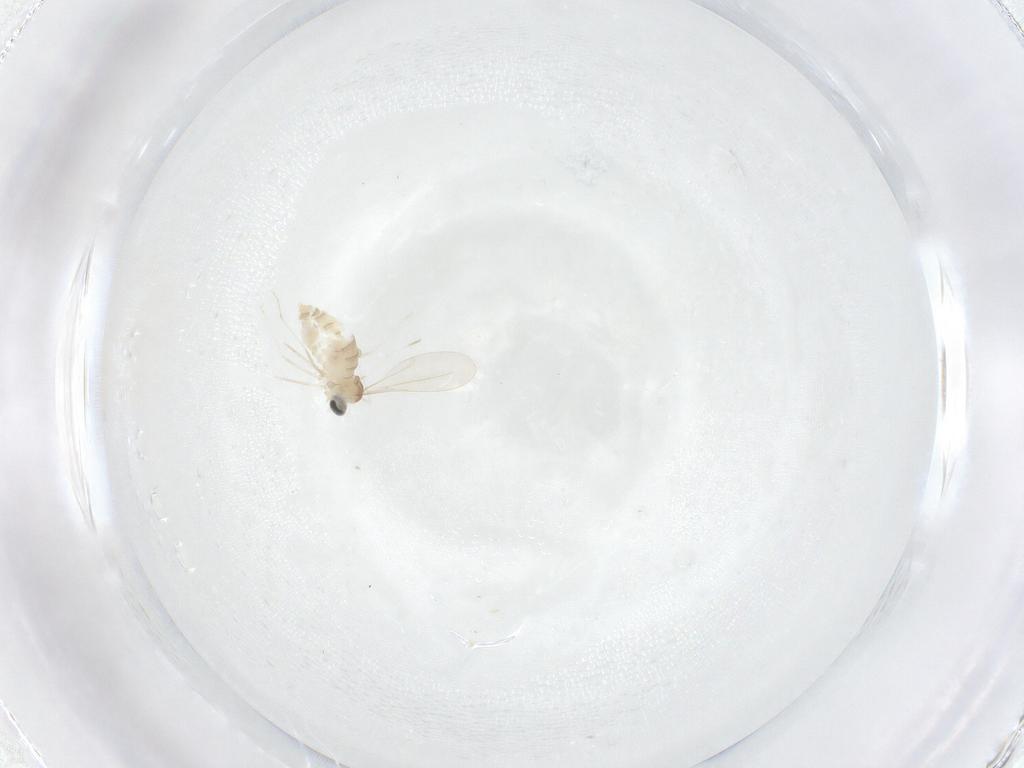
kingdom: Animalia
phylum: Arthropoda
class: Insecta
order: Diptera
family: Cecidomyiidae
